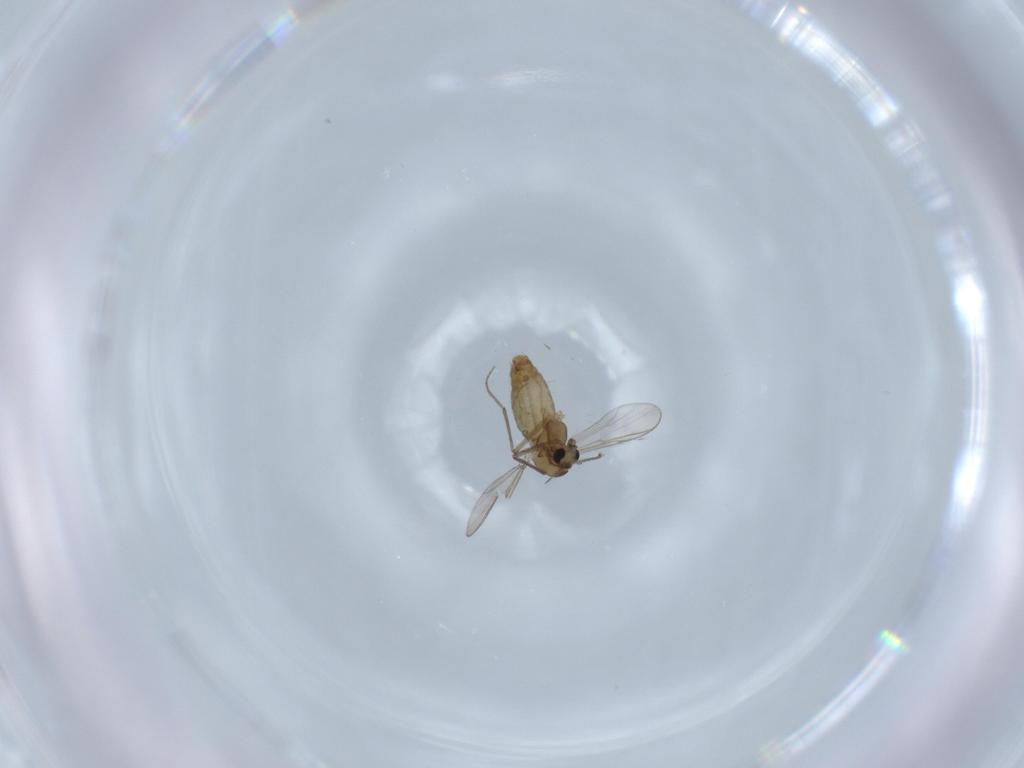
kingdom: Animalia
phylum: Arthropoda
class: Insecta
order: Diptera
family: Chironomidae
